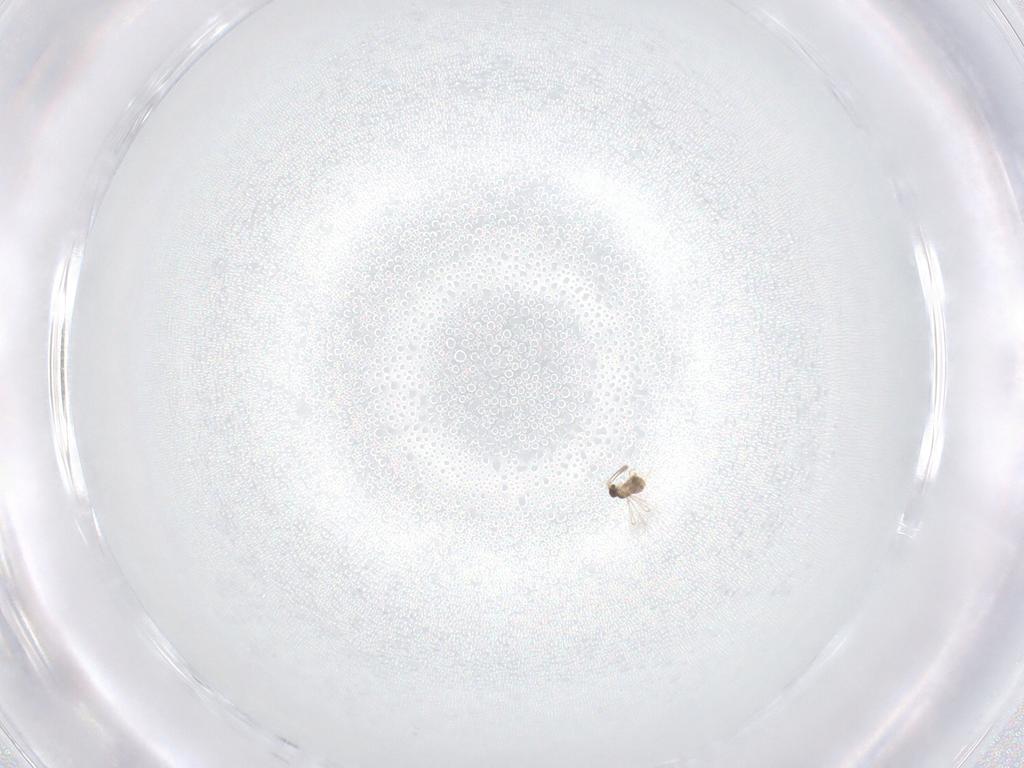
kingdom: Animalia
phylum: Arthropoda
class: Insecta
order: Hymenoptera
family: Scelionidae
